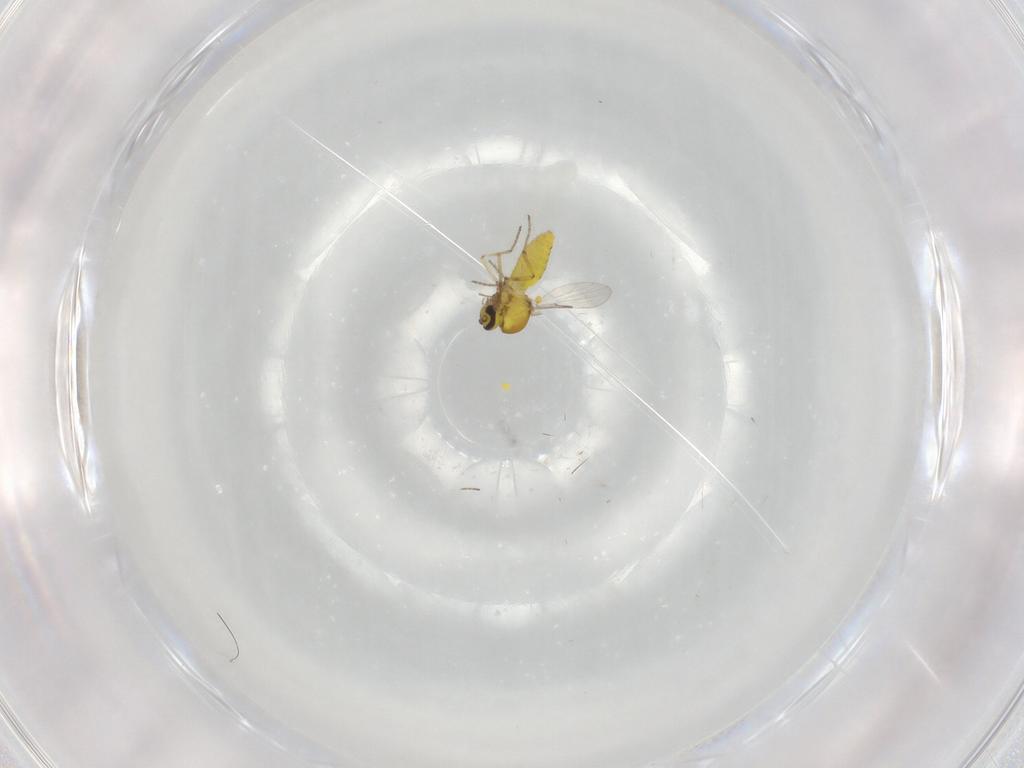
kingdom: Animalia
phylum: Arthropoda
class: Insecta
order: Diptera
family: Ceratopogonidae
